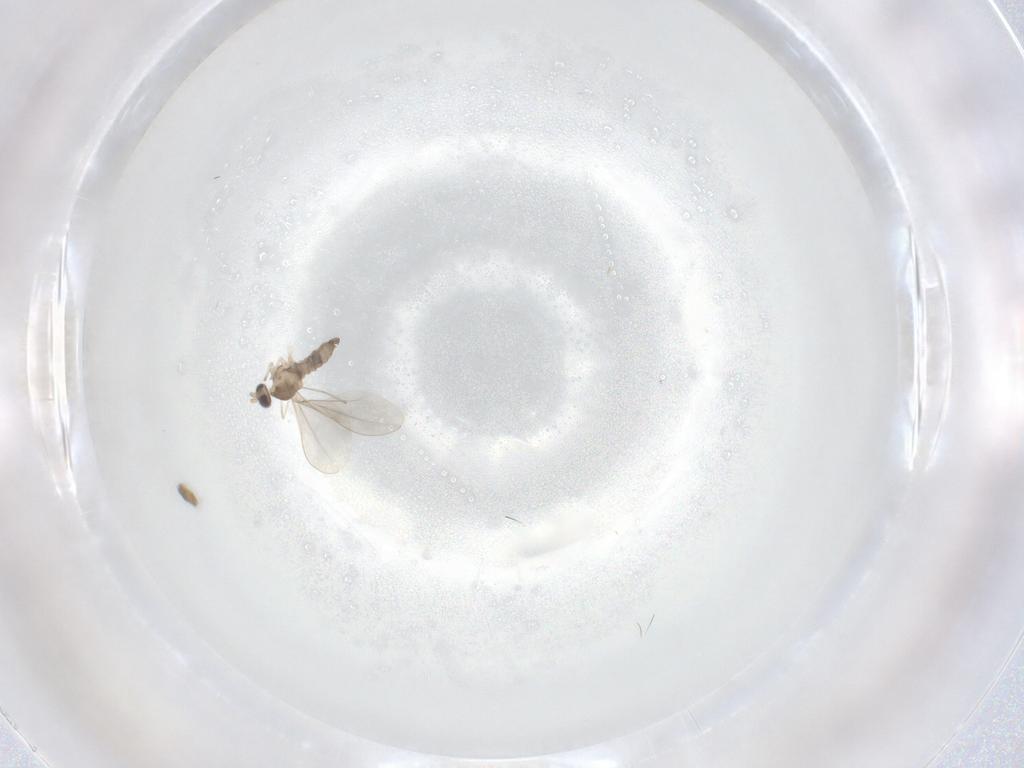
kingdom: Animalia
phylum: Arthropoda
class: Insecta
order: Diptera
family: Cecidomyiidae
